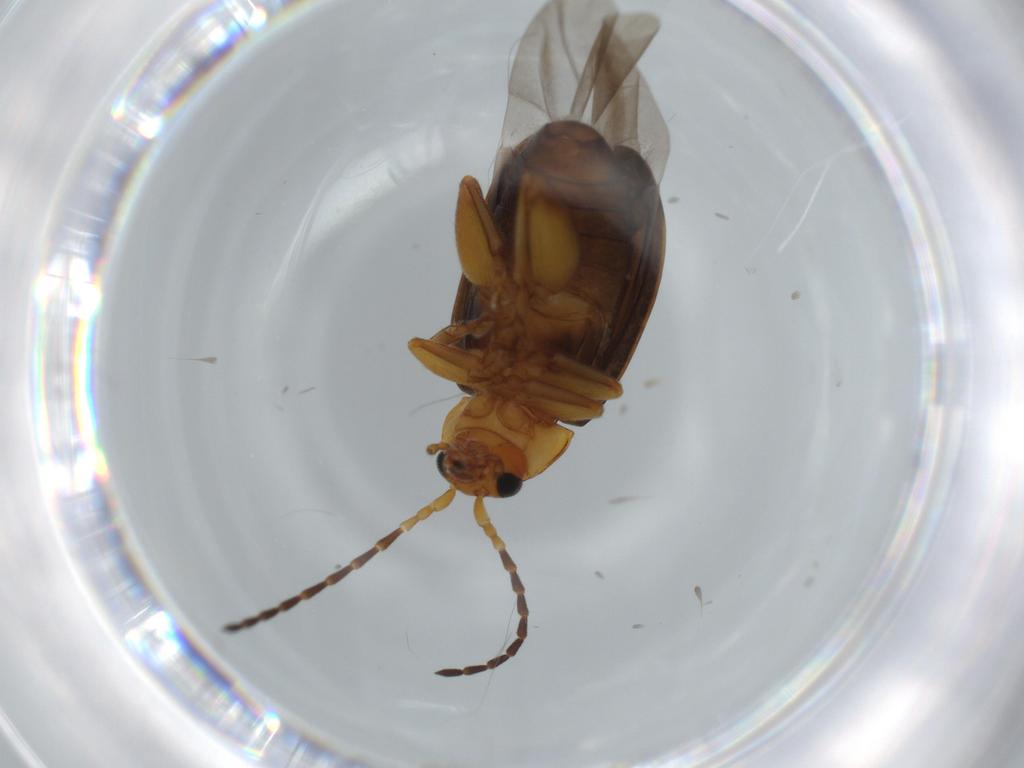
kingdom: Animalia
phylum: Arthropoda
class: Insecta
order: Coleoptera
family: Chrysomelidae
